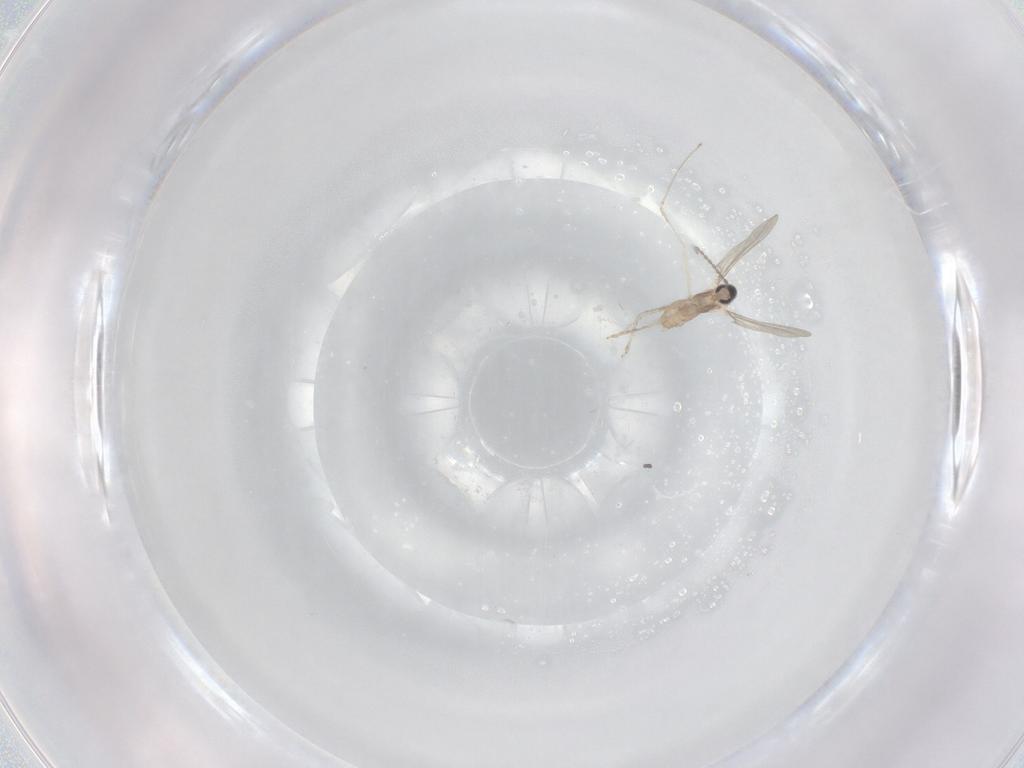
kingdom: Animalia
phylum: Arthropoda
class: Insecta
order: Diptera
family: Cecidomyiidae
